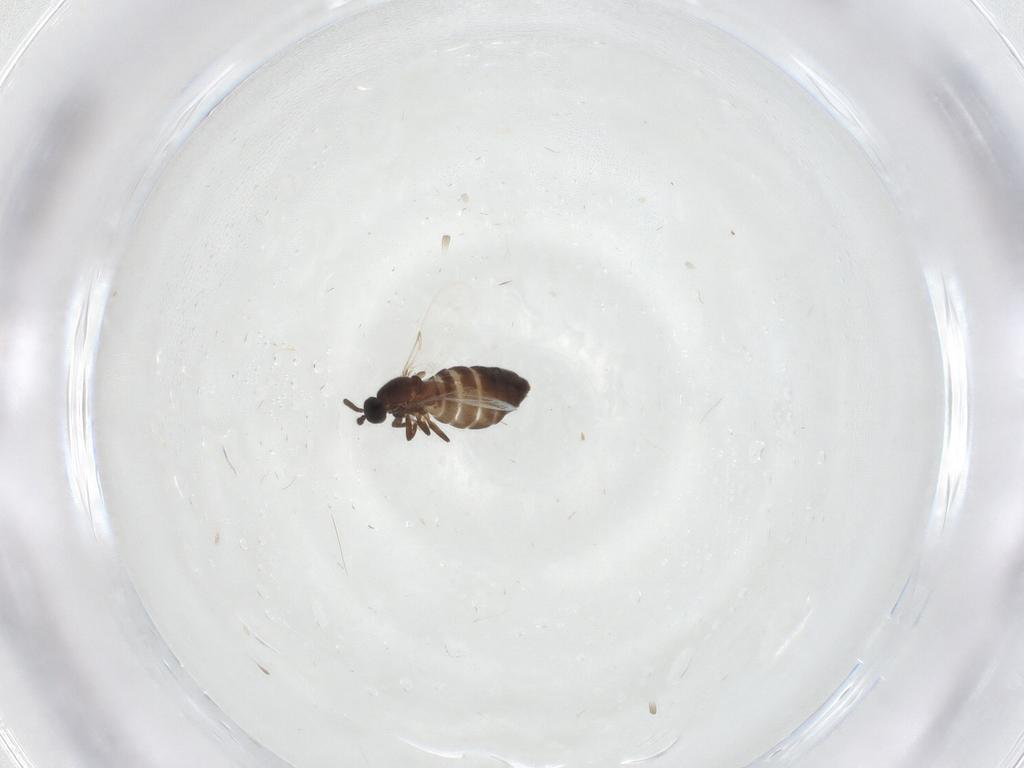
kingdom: Animalia
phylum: Arthropoda
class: Insecta
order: Diptera
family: Scatopsidae
